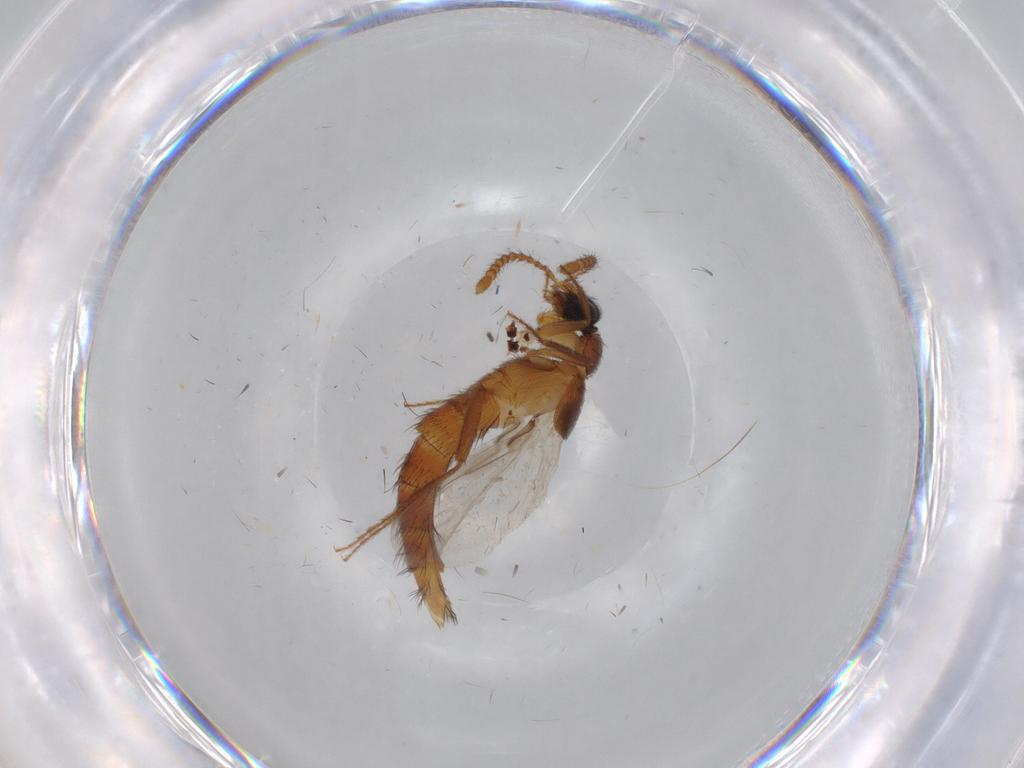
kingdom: Animalia
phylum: Arthropoda
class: Insecta
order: Coleoptera
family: Staphylinidae
